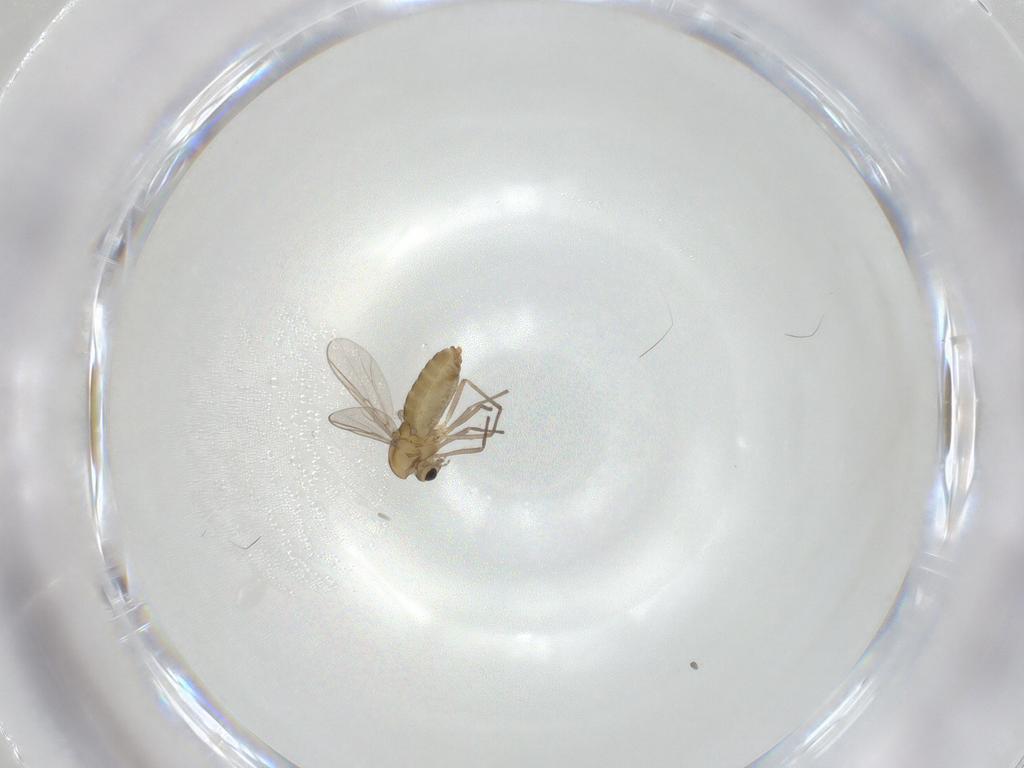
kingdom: Animalia
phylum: Arthropoda
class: Insecta
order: Diptera
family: Chironomidae
